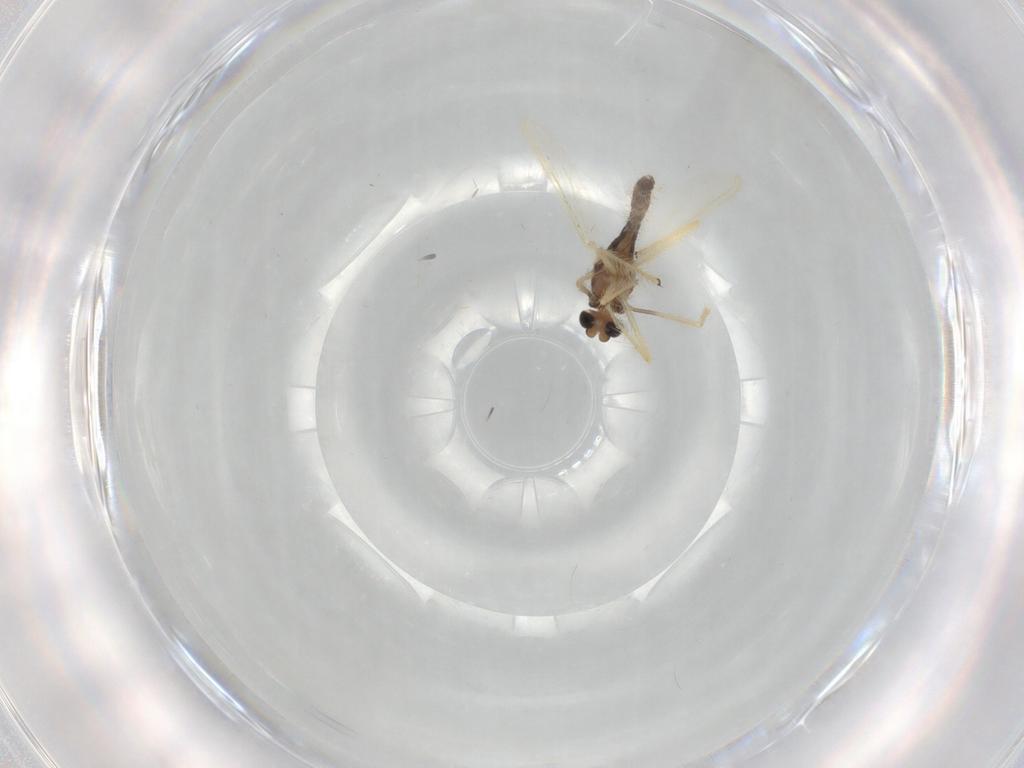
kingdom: Animalia
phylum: Arthropoda
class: Insecta
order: Diptera
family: Chironomidae
